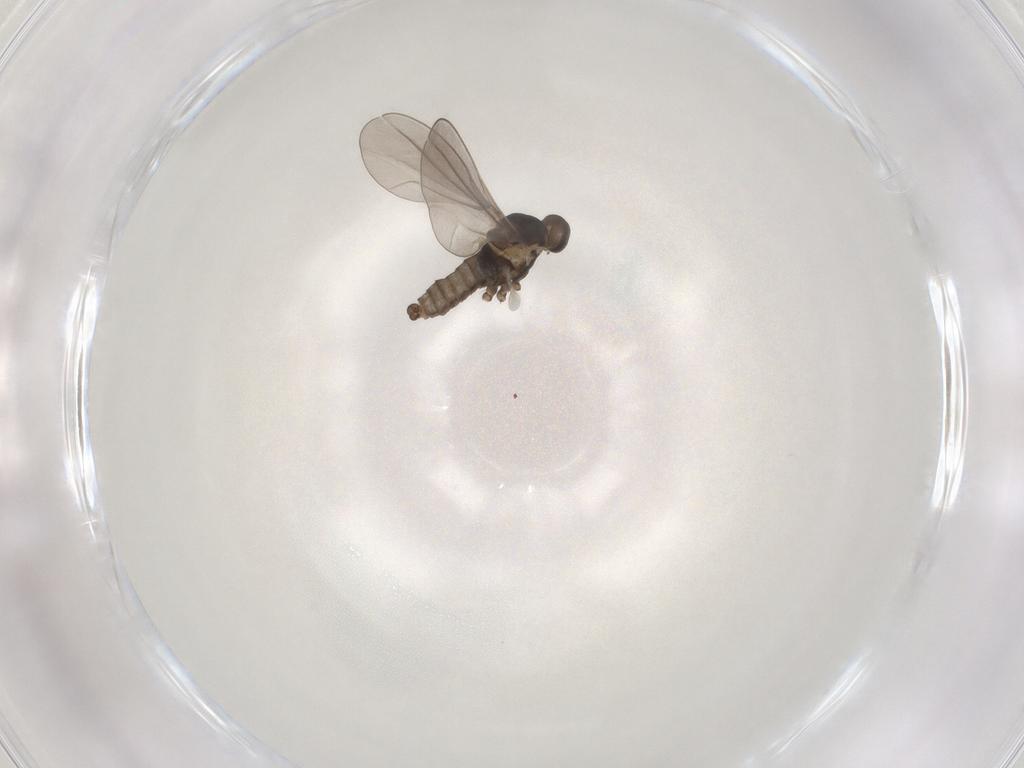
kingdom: Animalia
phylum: Arthropoda
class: Insecta
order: Diptera
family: Cecidomyiidae
